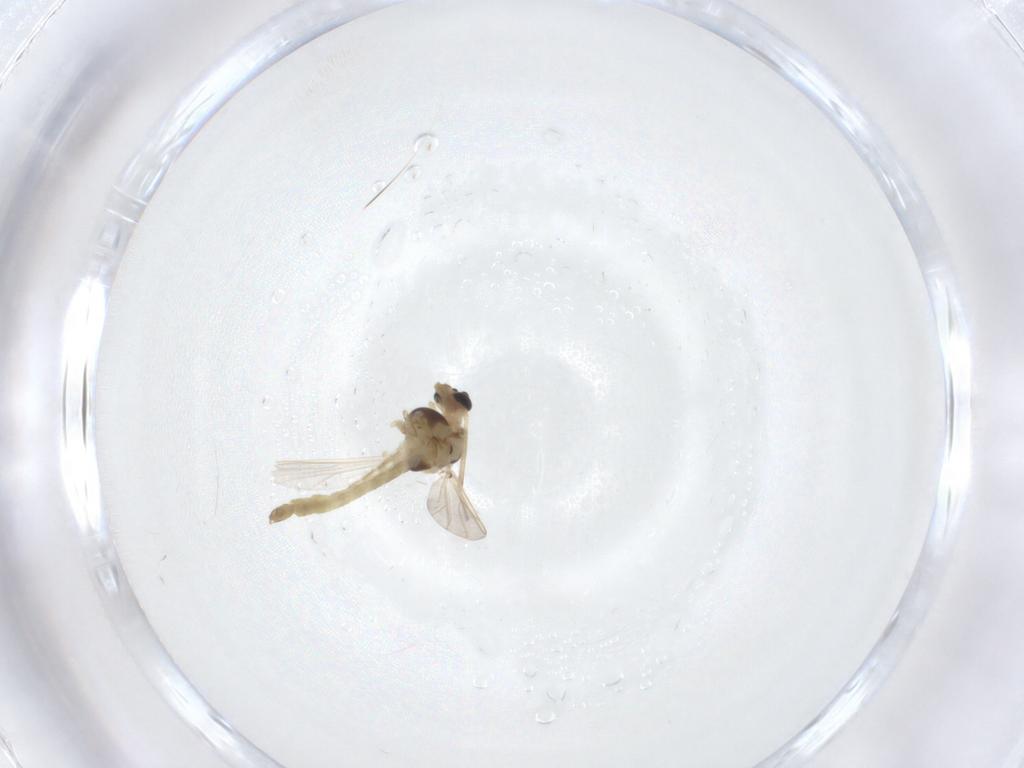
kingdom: Animalia
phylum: Arthropoda
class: Insecta
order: Diptera
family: Chironomidae
